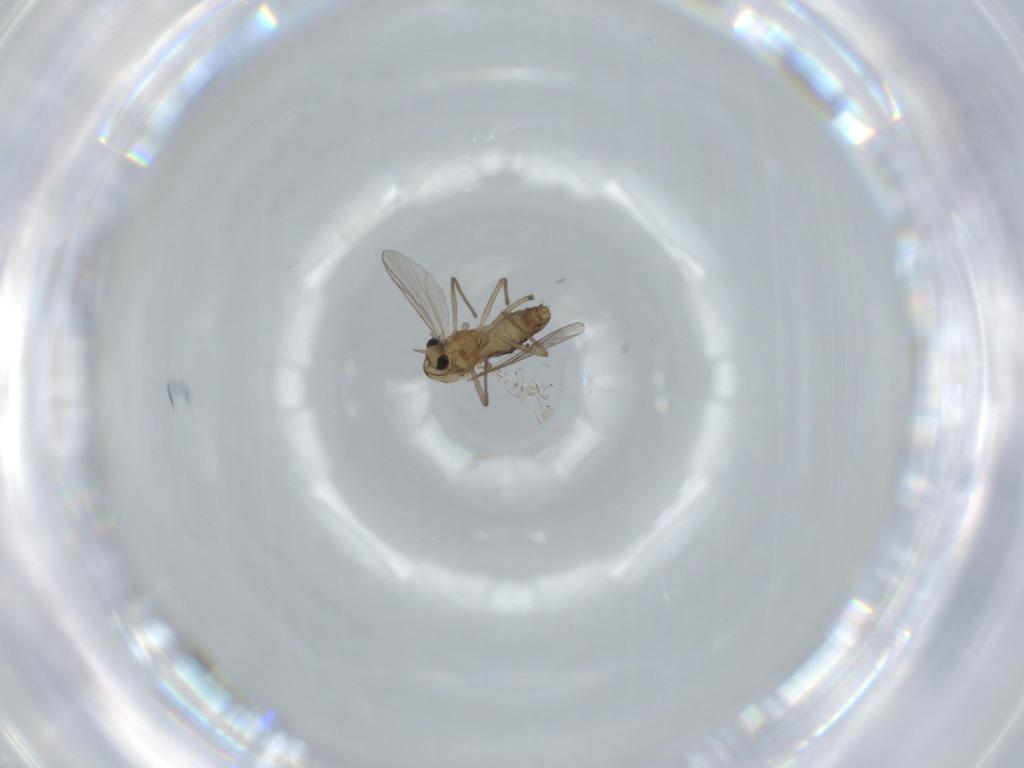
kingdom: Animalia
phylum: Arthropoda
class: Insecta
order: Diptera
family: Chironomidae
